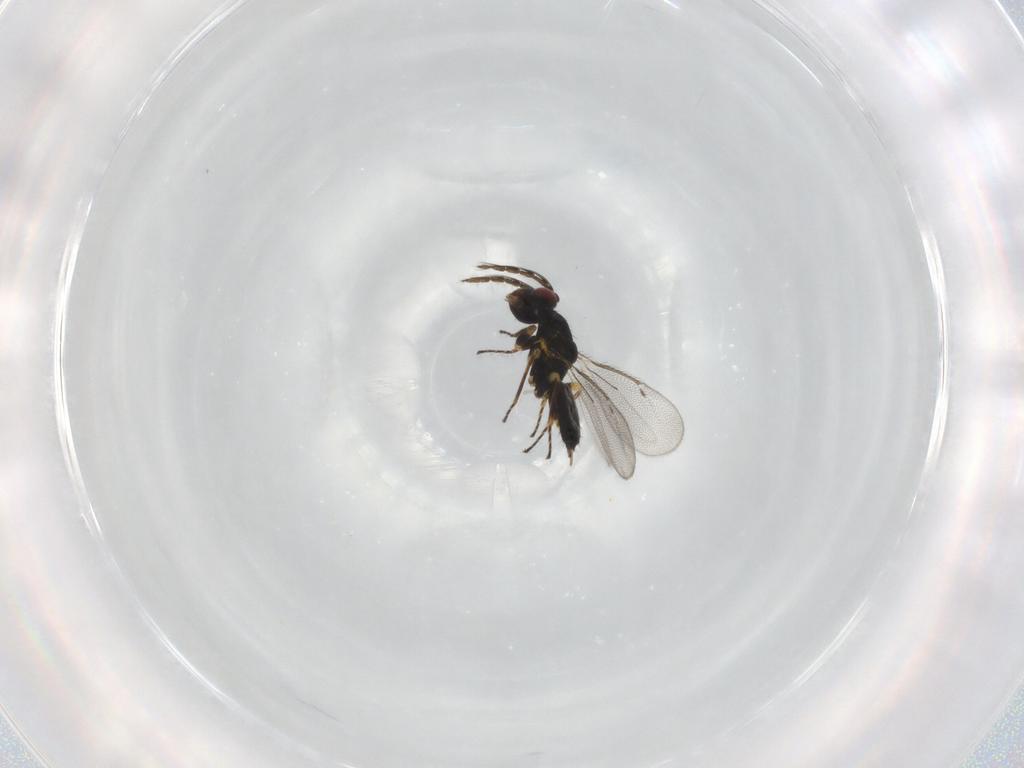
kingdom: Animalia
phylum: Arthropoda
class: Insecta
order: Hymenoptera
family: Eulophidae
